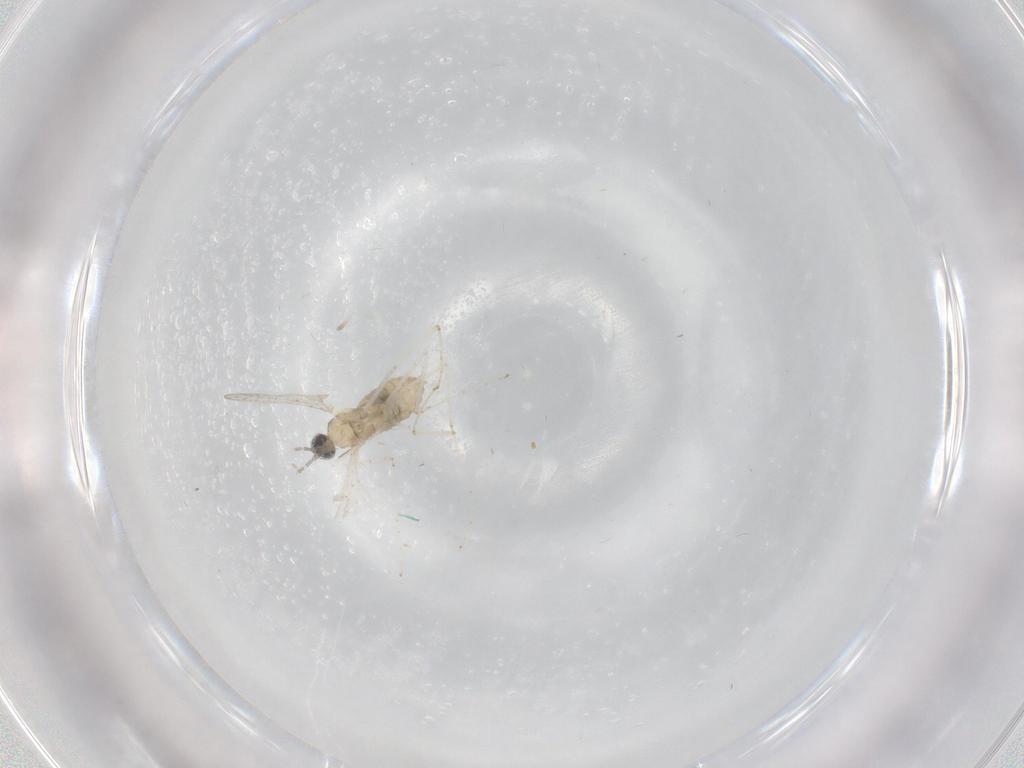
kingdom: Animalia
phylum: Arthropoda
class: Insecta
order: Diptera
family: Cecidomyiidae
